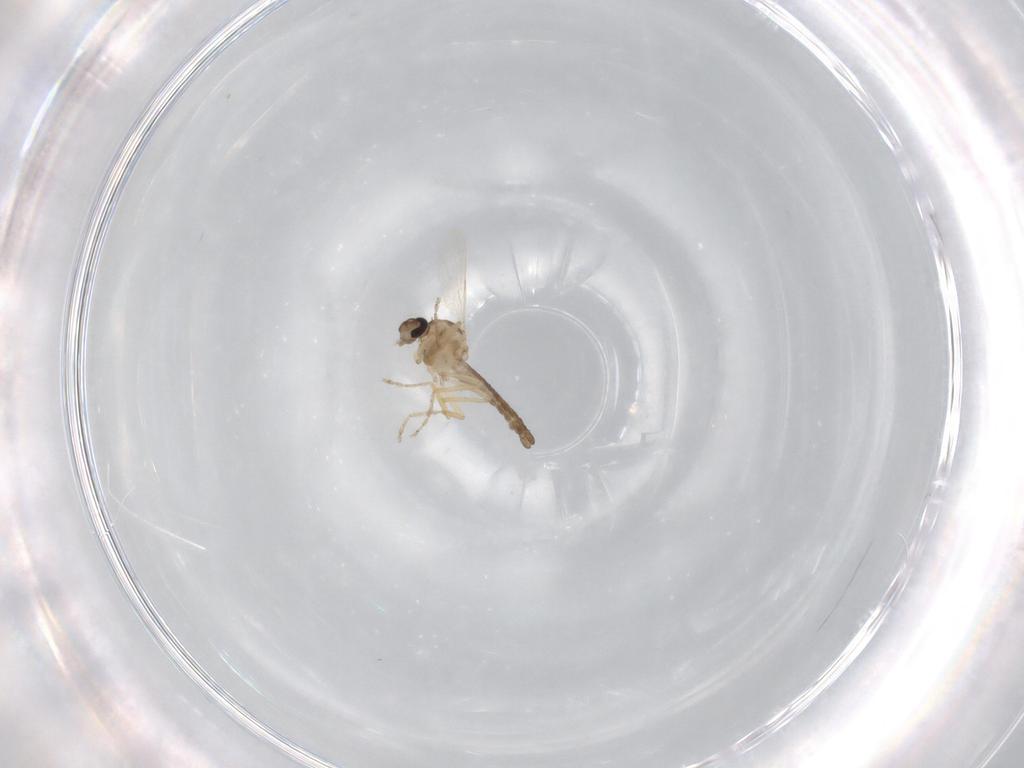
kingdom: Animalia
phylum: Arthropoda
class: Insecta
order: Diptera
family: Ceratopogonidae
